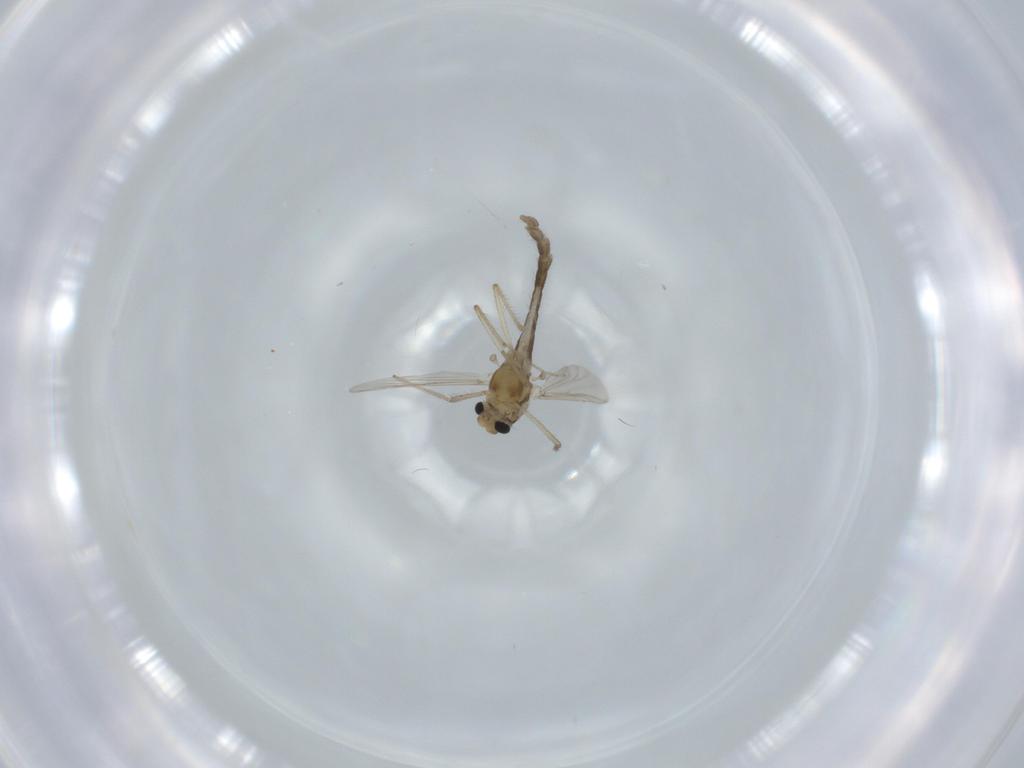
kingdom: Animalia
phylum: Arthropoda
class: Insecta
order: Diptera
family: Chironomidae
